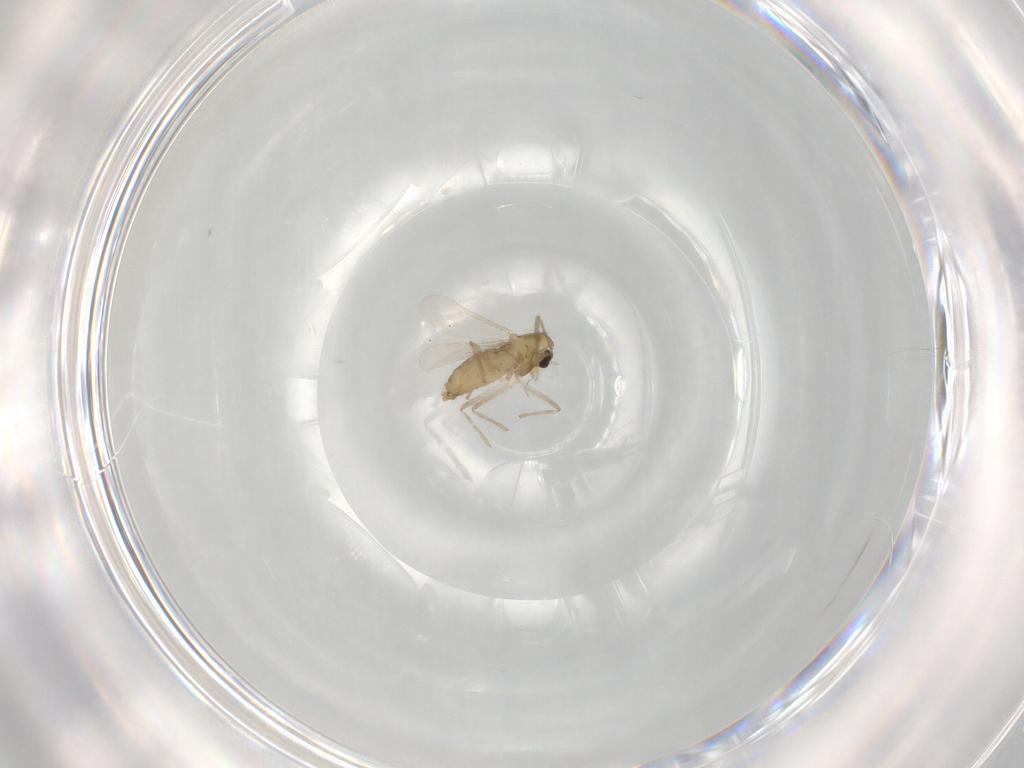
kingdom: Animalia
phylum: Arthropoda
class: Insecta
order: Diptera
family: Chironomidae
